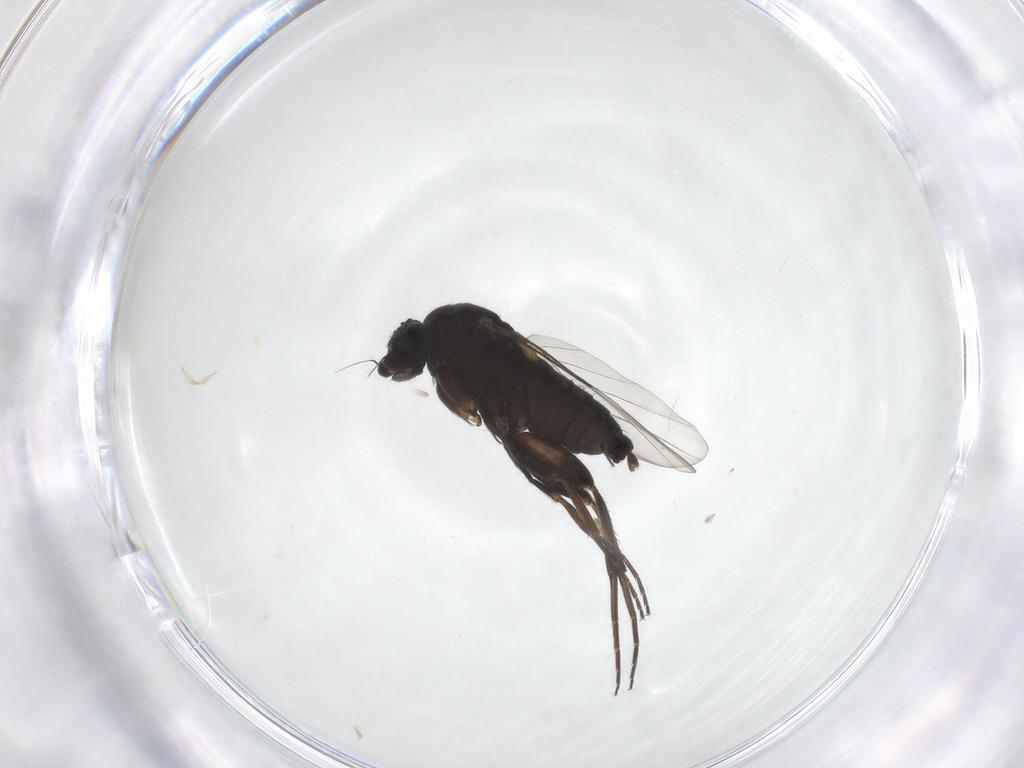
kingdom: Animalia
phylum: Arthropoda
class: Insecta
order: Diptera
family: Phoridae
